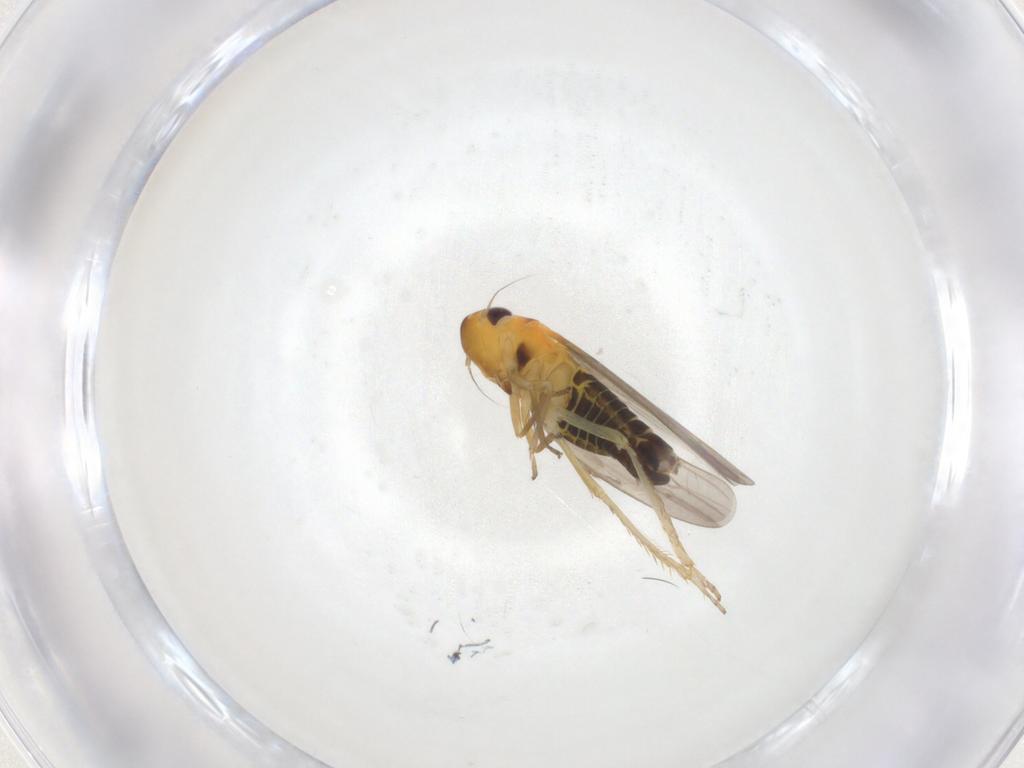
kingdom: Animalia
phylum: Arthropoda
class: Insecta
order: Hemiptera
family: Cicadellidae
